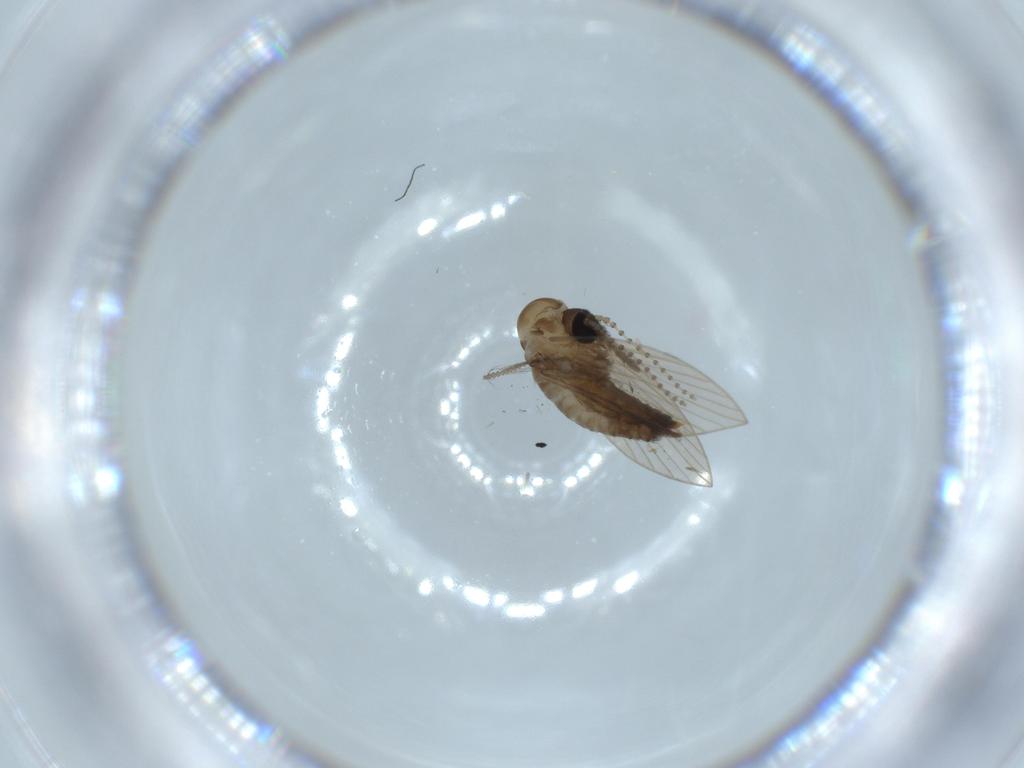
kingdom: Animalia
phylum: Arthropoda
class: Insecta
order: Diptera
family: Psychodidae
